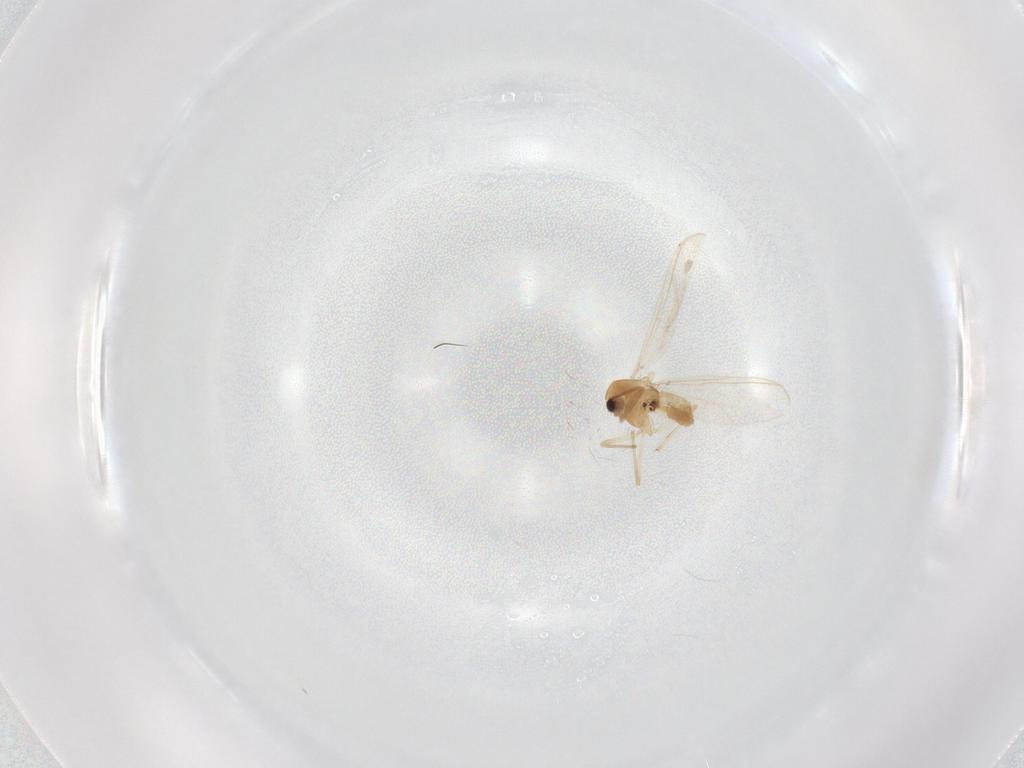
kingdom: Animalia
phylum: Arthropoda
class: Insecta
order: Diptera
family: Chironomidae
